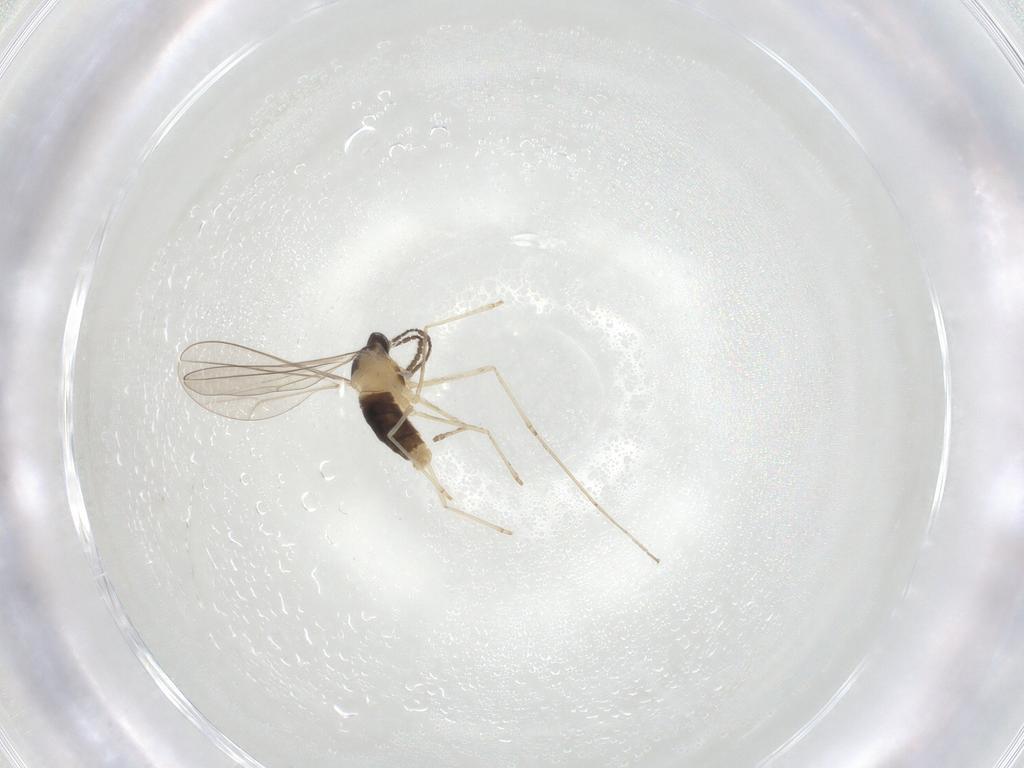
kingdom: Animalia
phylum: Arthropoda
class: Insecta
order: Diptera
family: Cecidomyiidae
